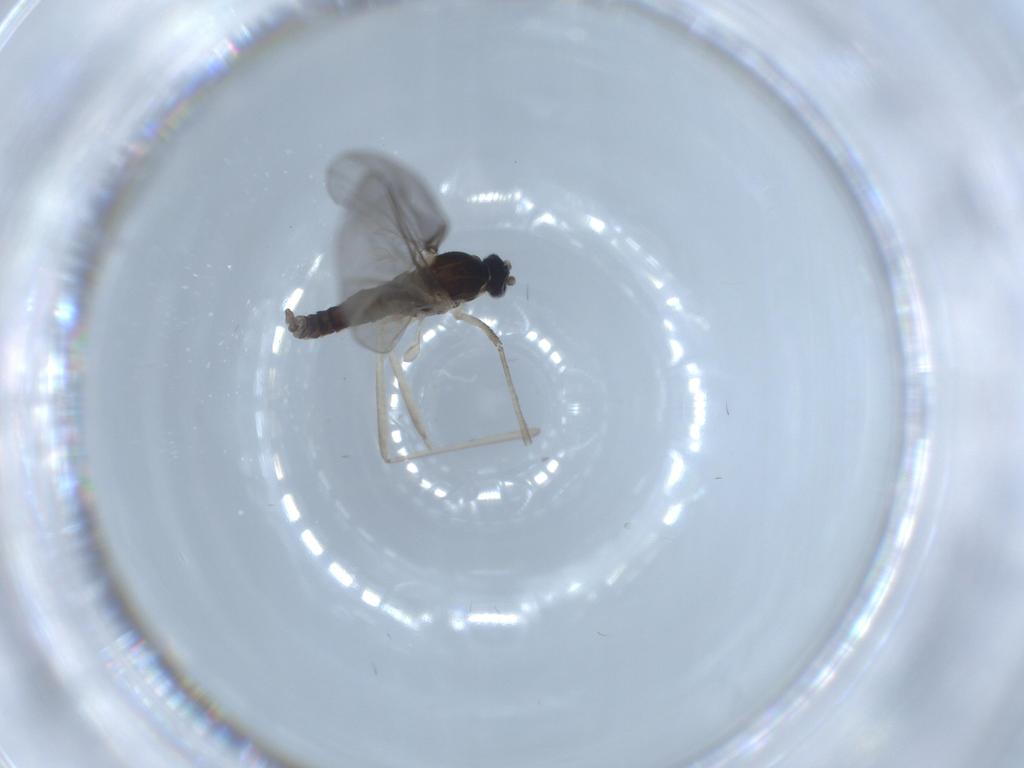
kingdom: Animalia
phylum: Arthropoda
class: Insecta
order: Diptera
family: Cecidomyiidae
